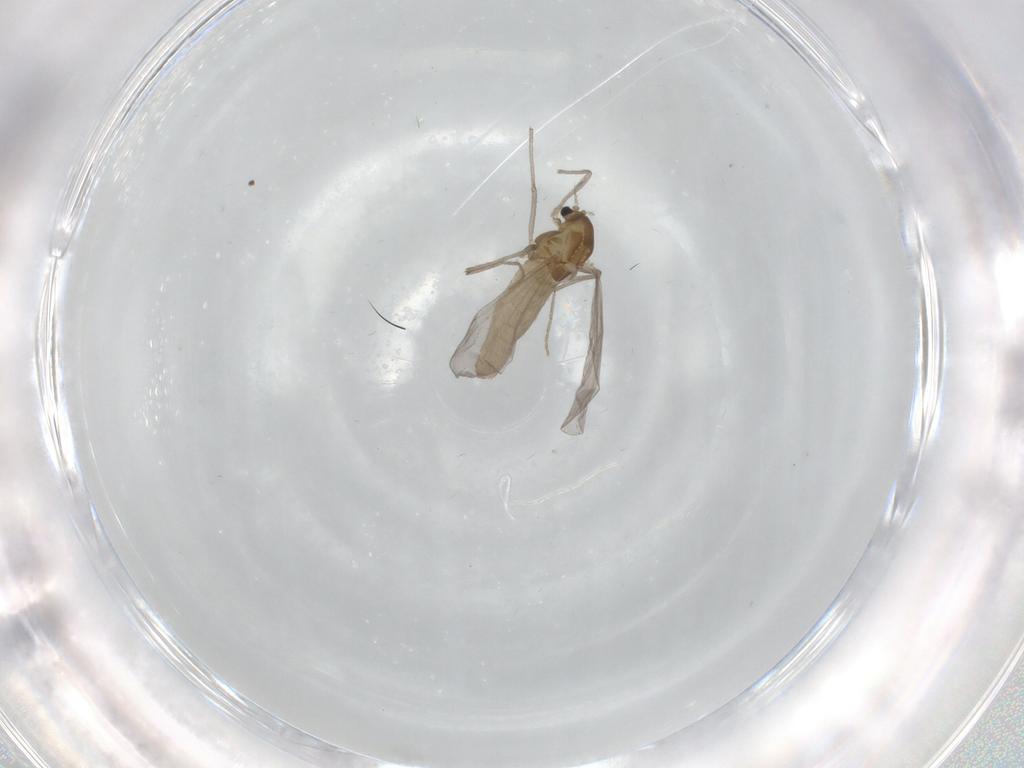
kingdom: Animalia
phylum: Arthropoda
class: Insecta
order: Diptera
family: Chironomidae
